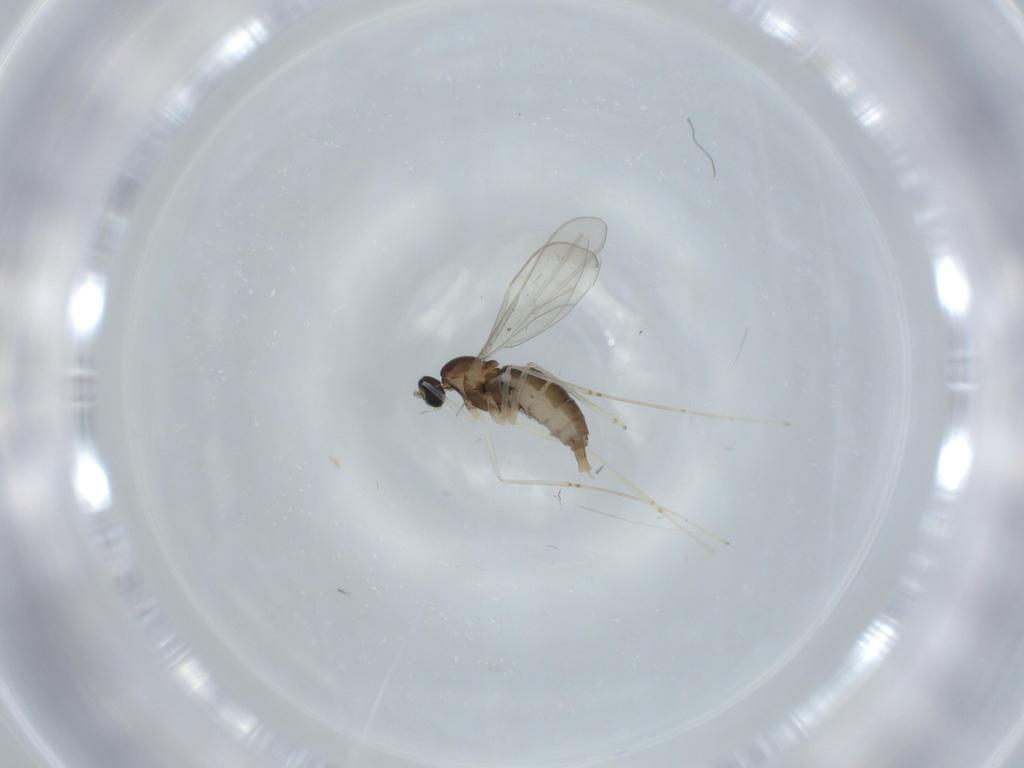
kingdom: Animalia
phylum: Arthropoda
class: Insecta
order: Diptera
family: Cecidomyiidae
